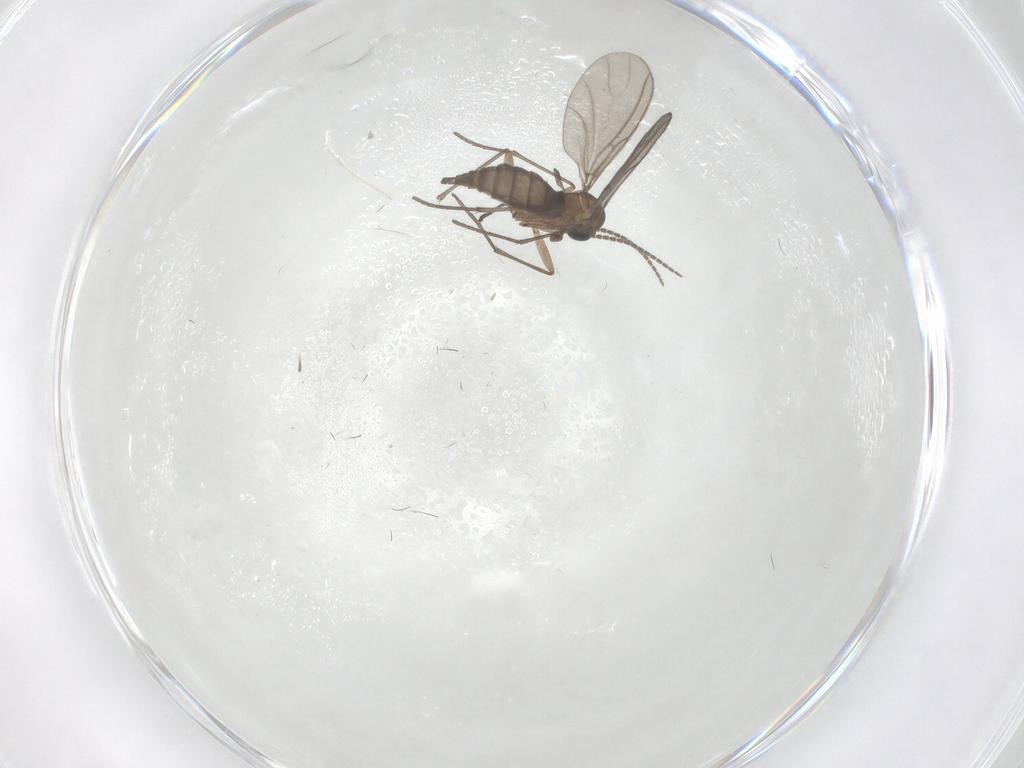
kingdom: Animalia
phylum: Arthropoda
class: Insecta
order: Diptera
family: Sciaridae
